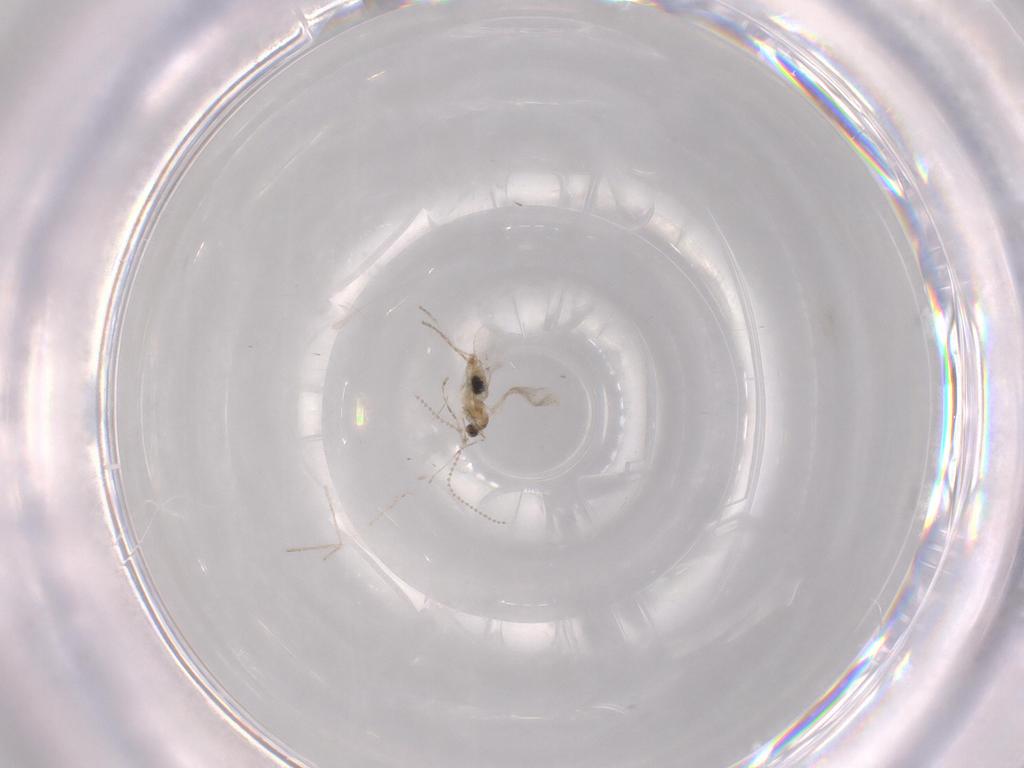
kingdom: Animalia
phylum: Arthropoda
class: Insecta
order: Diptera
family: Cecidomyiidae
